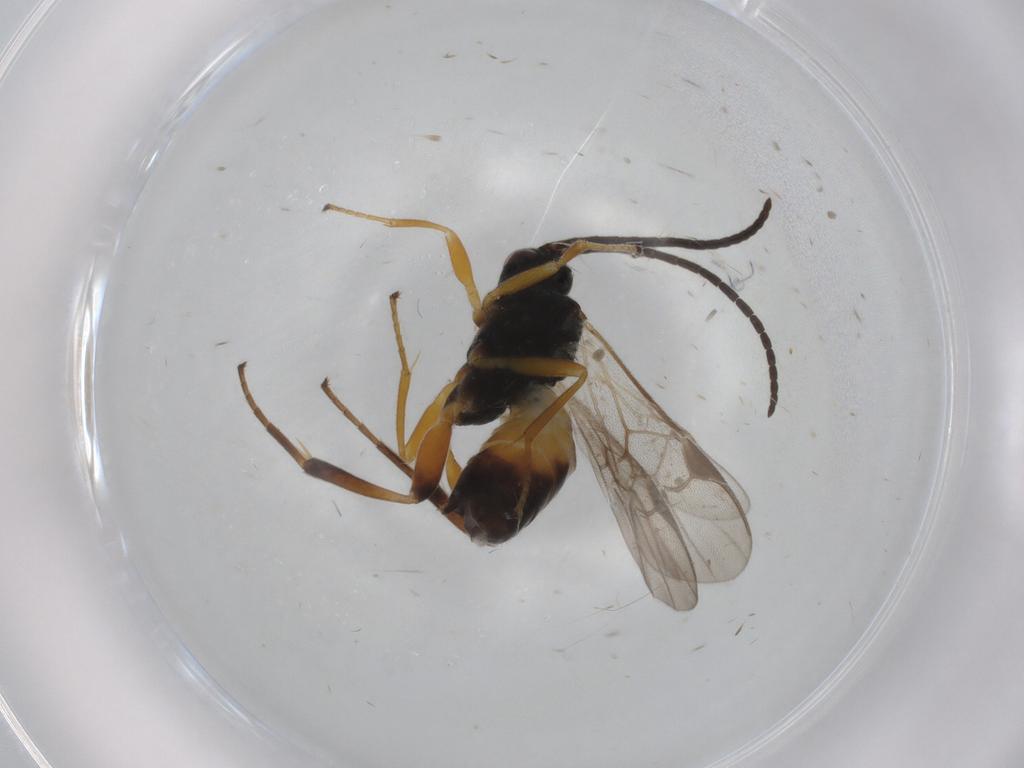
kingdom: Animalia
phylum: Arthropoda
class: Insecta
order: Hymenoptera
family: Braconidae
